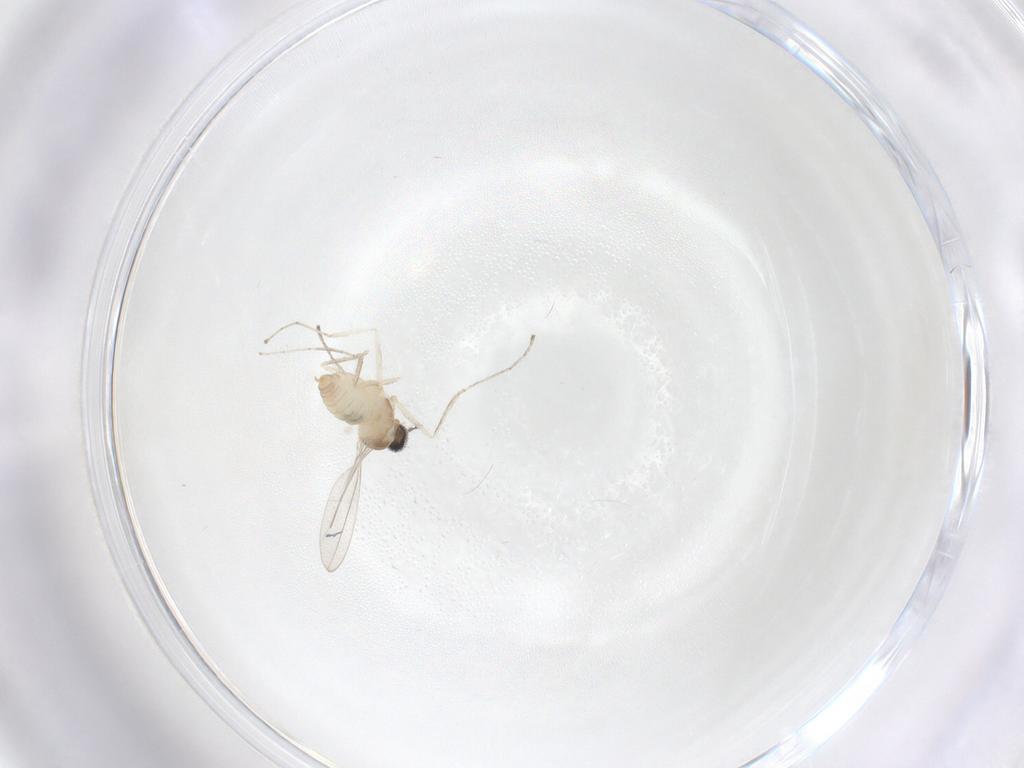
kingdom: Animalia
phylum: Arthropoda
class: Insecta
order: Diptera
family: Cecidomyiidae
